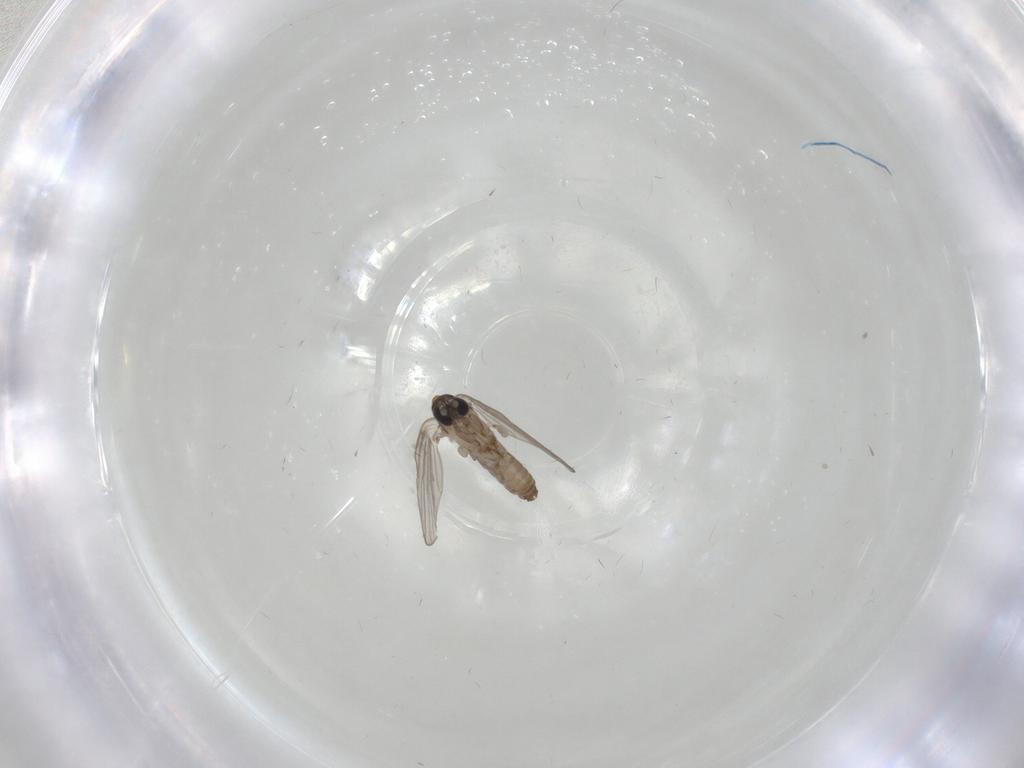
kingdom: Animalia
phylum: Arthropoda
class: Insecta
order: Diptera
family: Psychodidae
